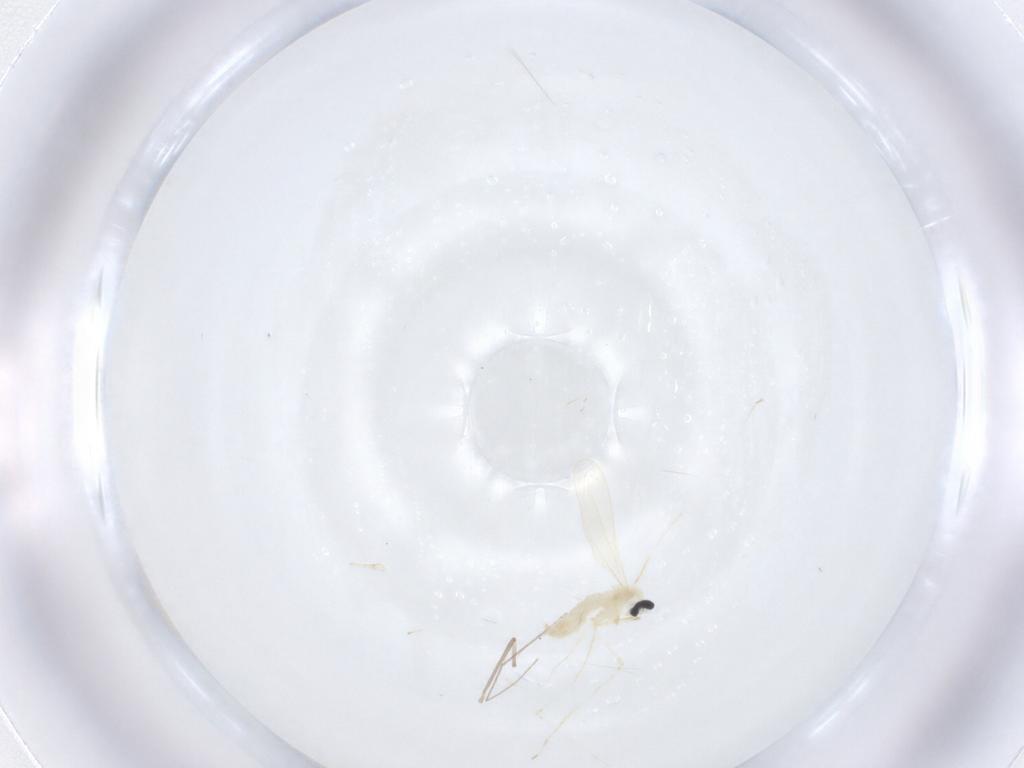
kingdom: Animalia
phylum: Arthropoda
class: Insecta
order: Diptera
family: Cecidomyiidae
